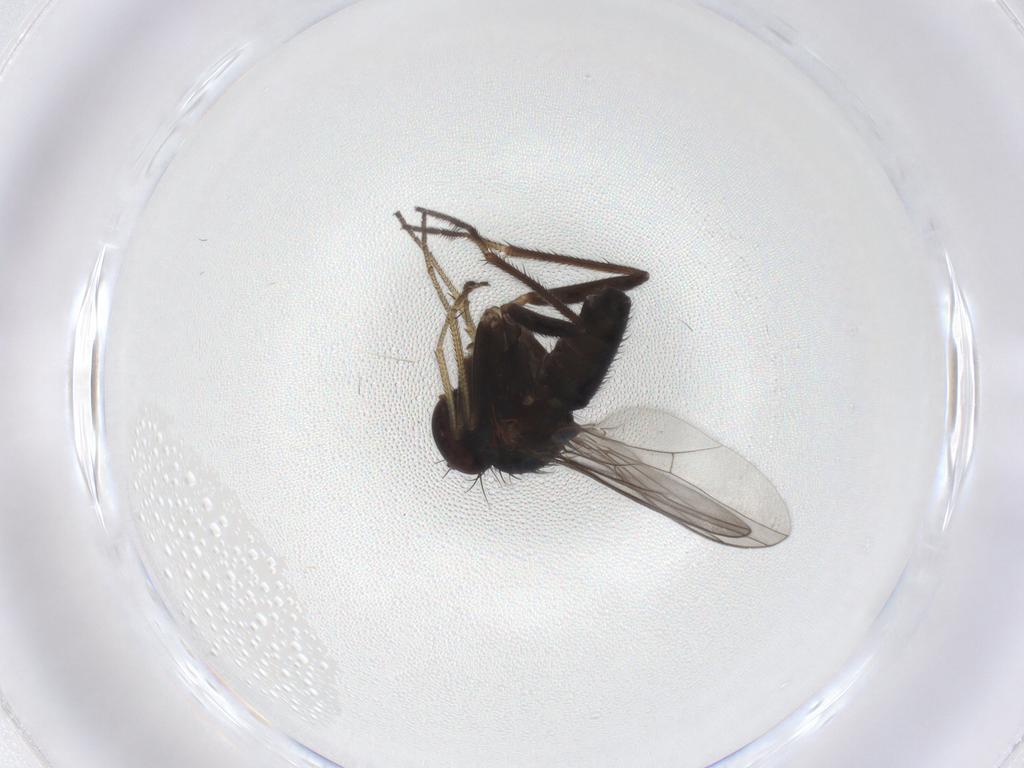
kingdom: Animalia
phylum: Arthropoda
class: Insecta
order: Diptera
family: Dolichopodidae
